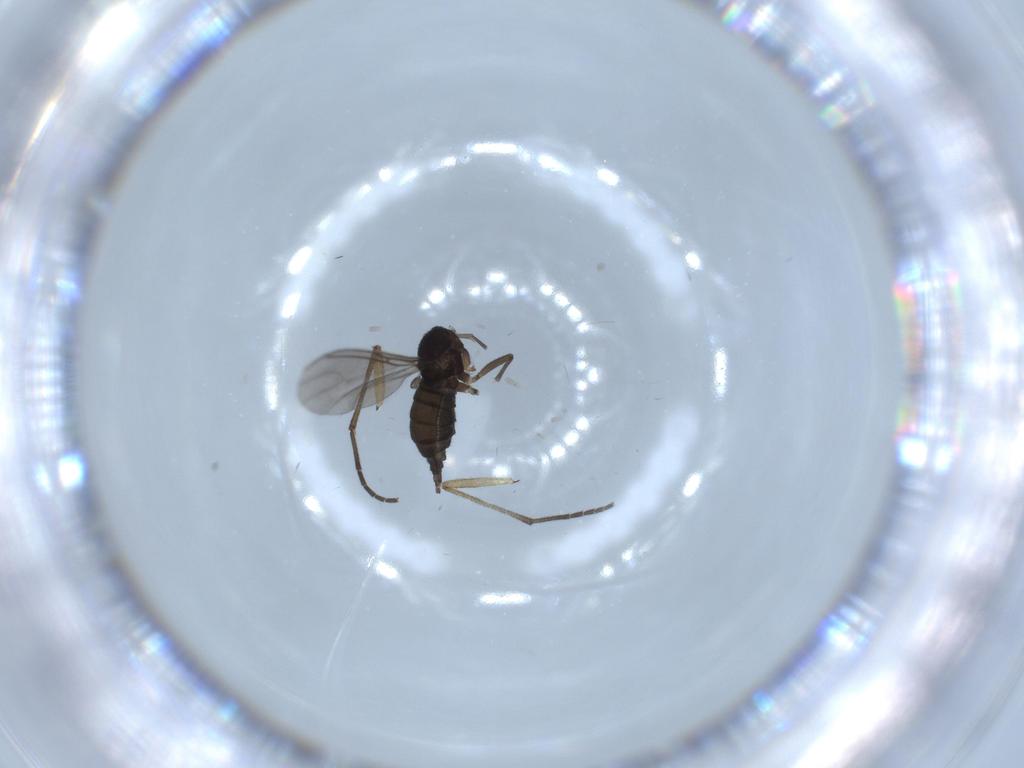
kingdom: Animalia
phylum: Arthropoda
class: Insecta
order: Diptera
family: Sciaridae
